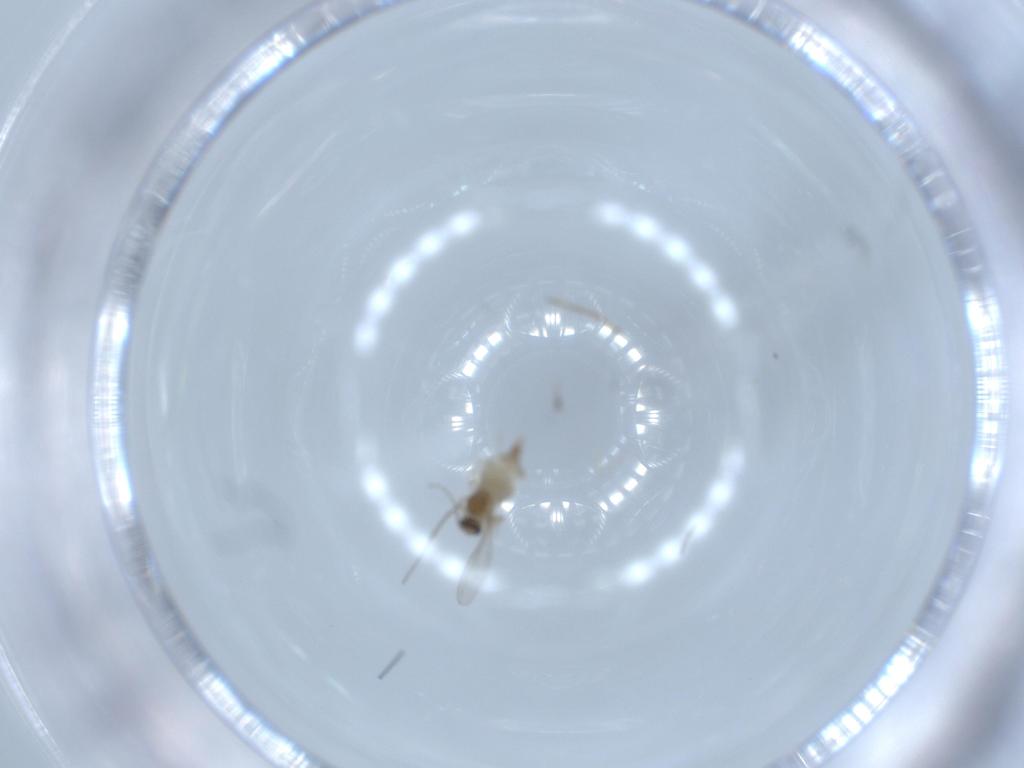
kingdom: Animalia
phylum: Arthropoda
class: Insecta
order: Diptera
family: Cecidomyiidae
